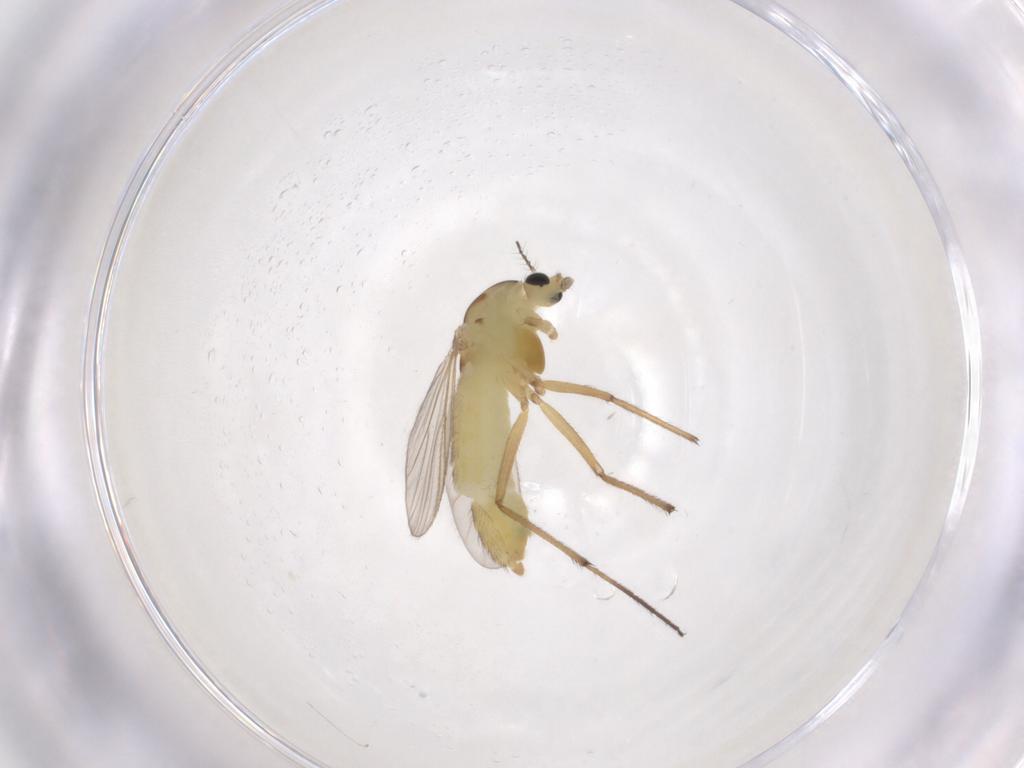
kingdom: Animalia
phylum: Arthropoda
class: Insecta
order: Diptera
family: Chironomidae
